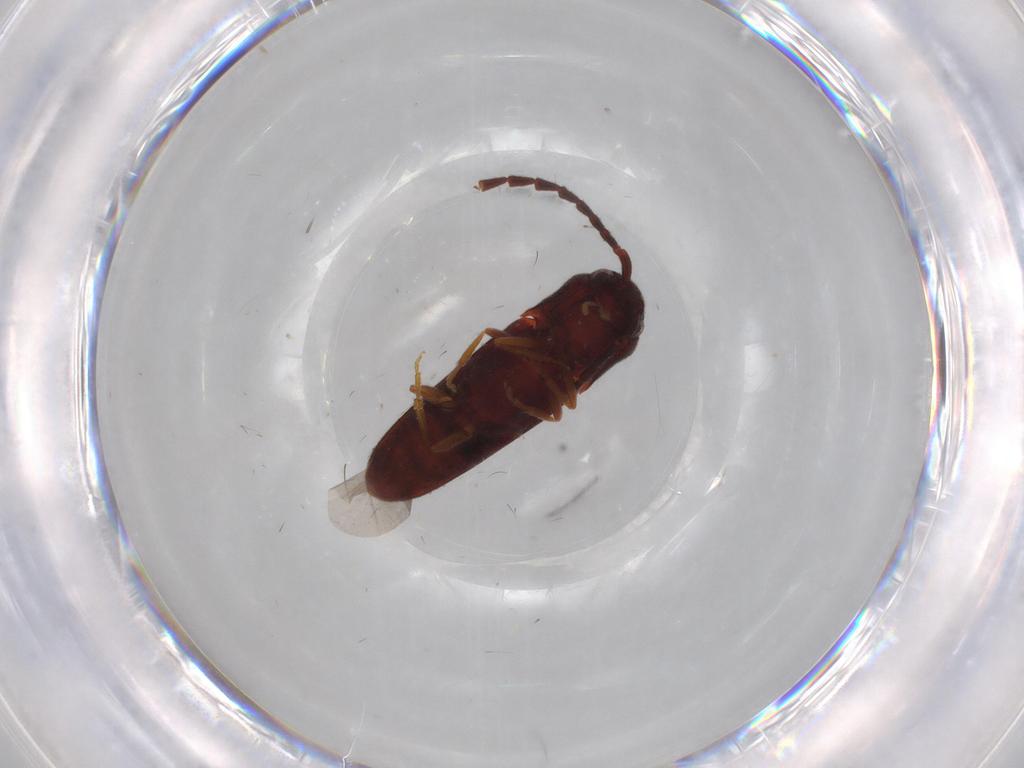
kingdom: Animalia
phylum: Arthropoda
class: Insecta
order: Coleoptera
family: Eucnemidae
